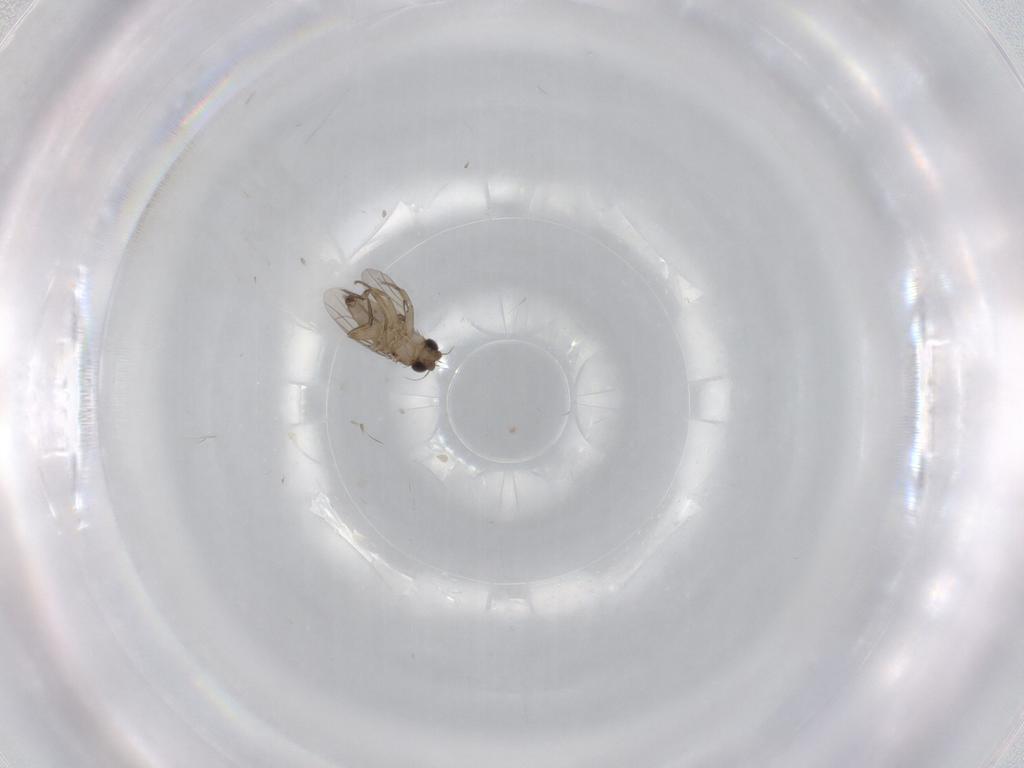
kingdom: Animalia
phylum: Arthropoda
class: Insecta
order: Diptera
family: Phoridae
